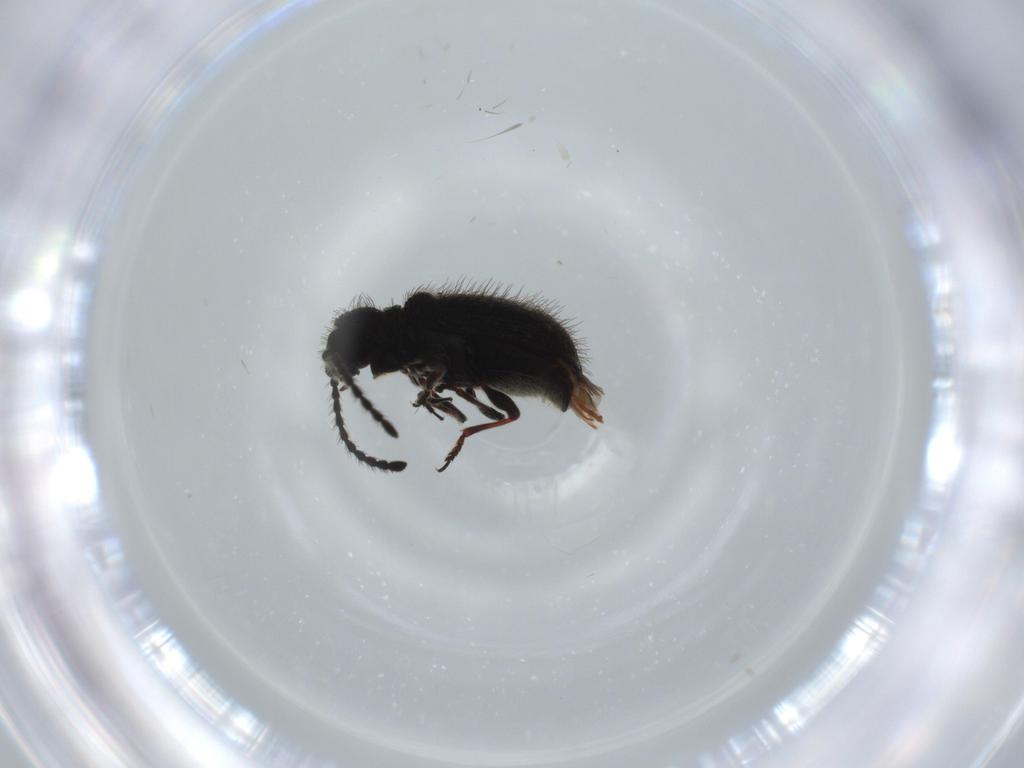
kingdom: Animalia
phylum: Arthropoda
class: Insecta
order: Coleoptera
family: Ptinidae
